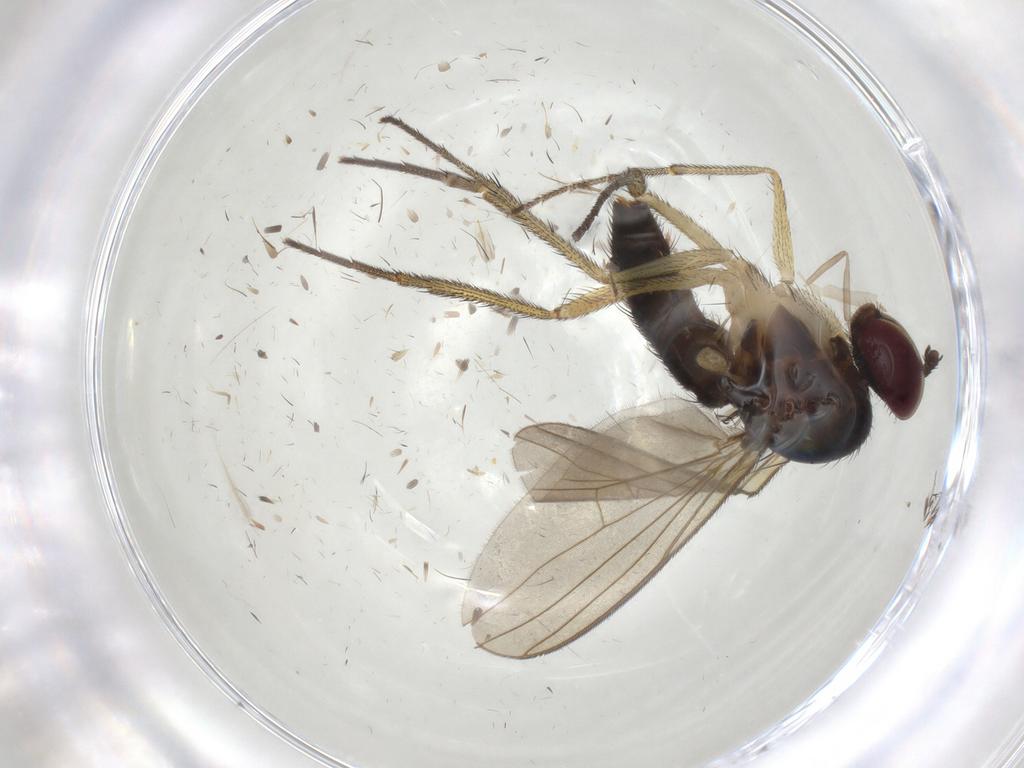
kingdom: Animalia
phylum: Arthropoda
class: Insecta
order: Diptera
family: Dolichopodidae
